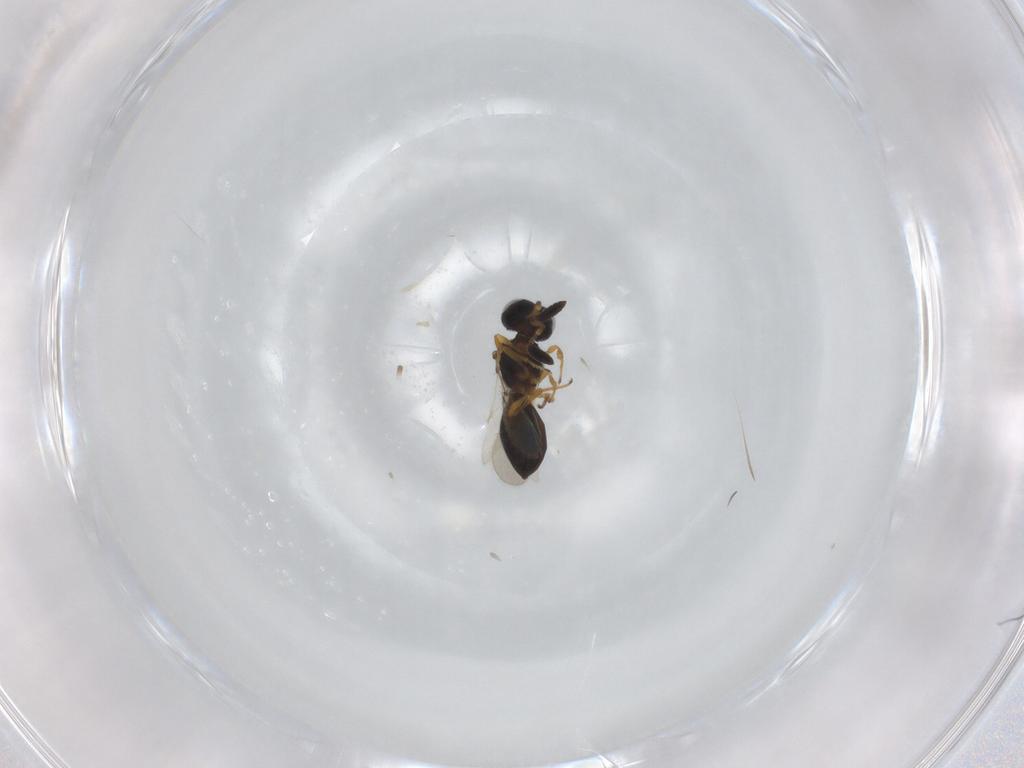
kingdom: Animalia
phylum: Arthropoda
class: Insecta
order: Hymenoptera
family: Scelionidae
